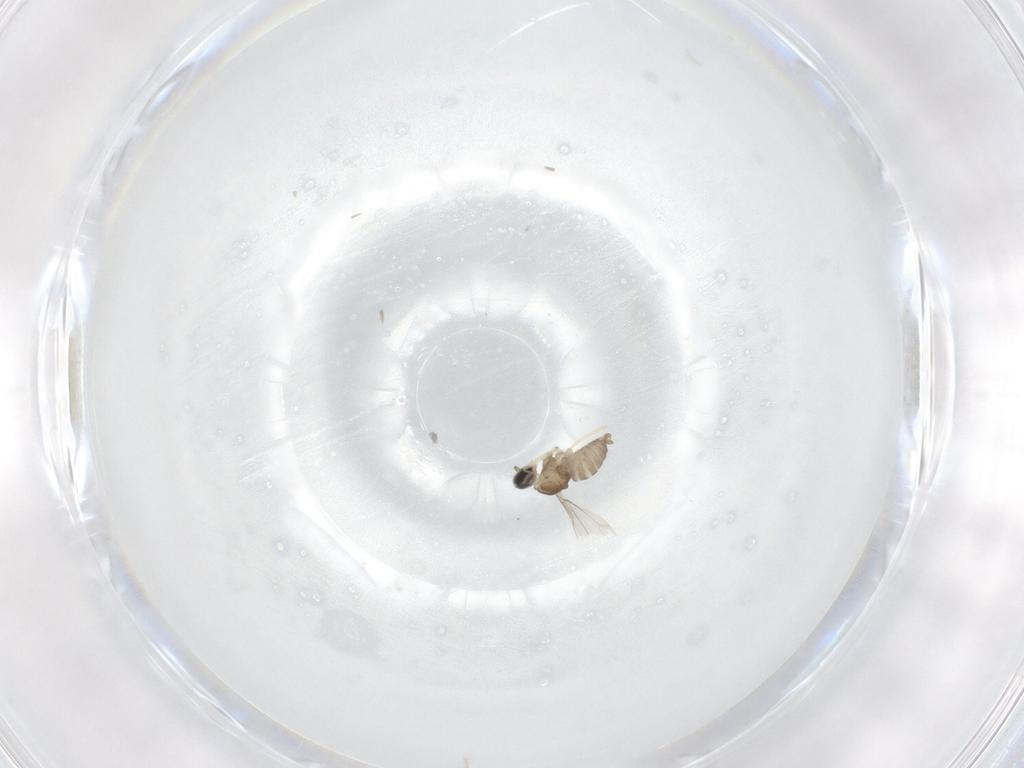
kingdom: Animalia
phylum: Arthropoda
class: Insecta
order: Diptera
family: Cecidomyiidae
